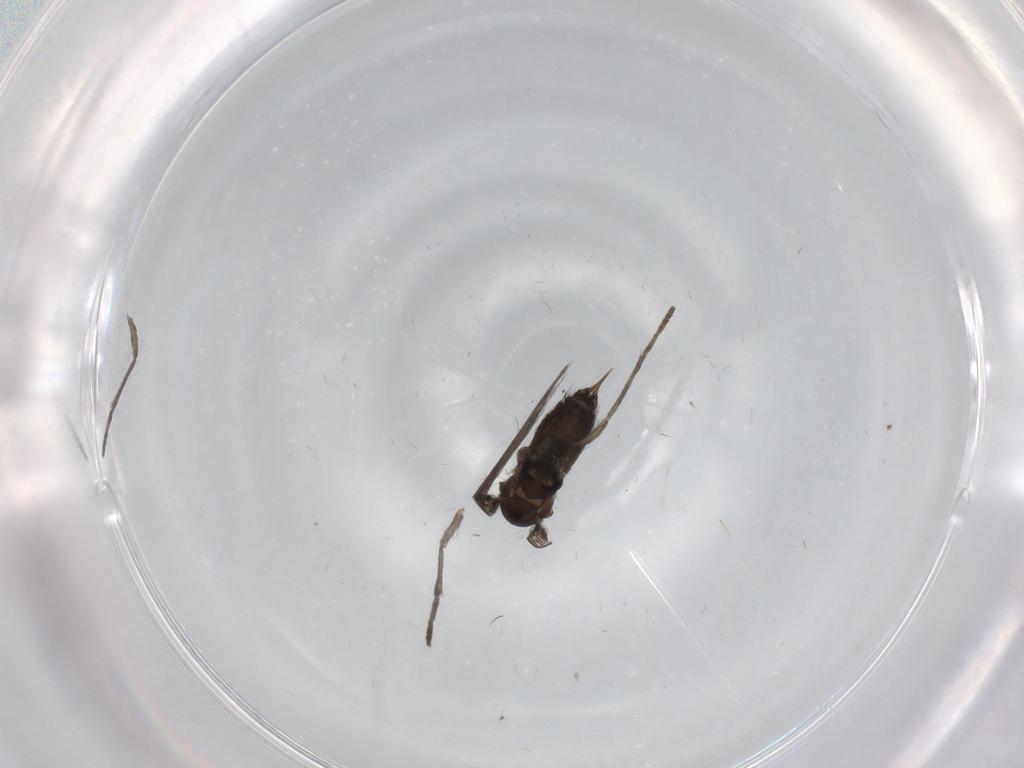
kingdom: Animalia
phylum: Arthropoda
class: Insecta
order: Diptera
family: Psychodidae
